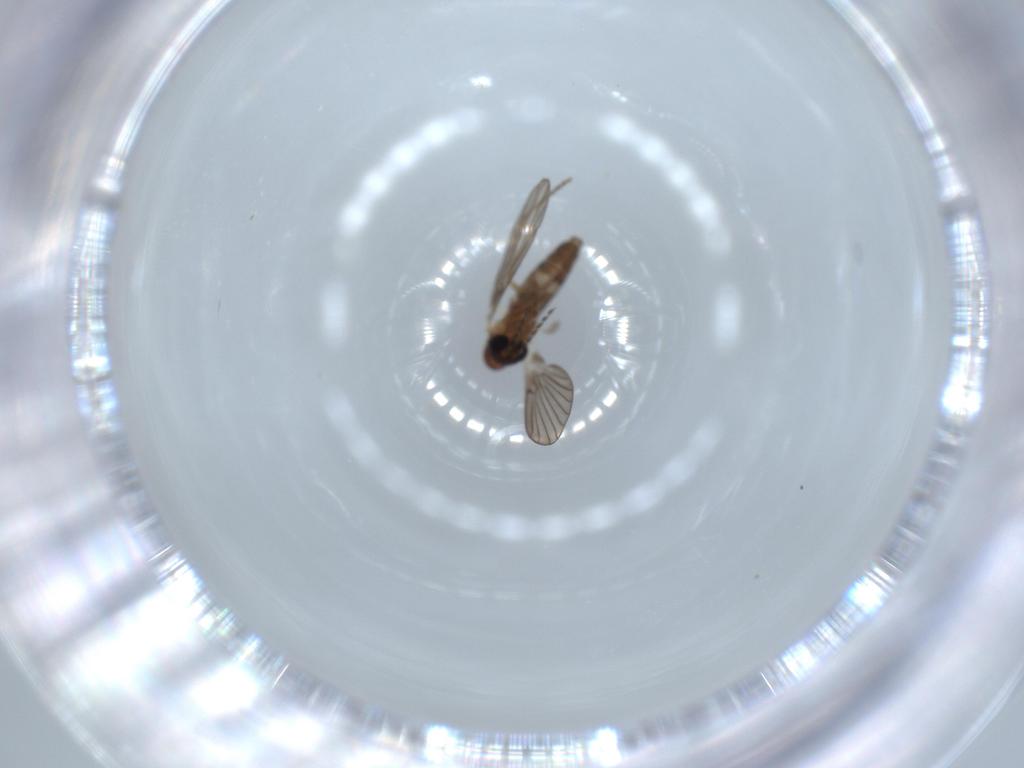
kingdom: Animalia
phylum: Arthropoda
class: Insecta
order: Diptera
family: Psychodidae
